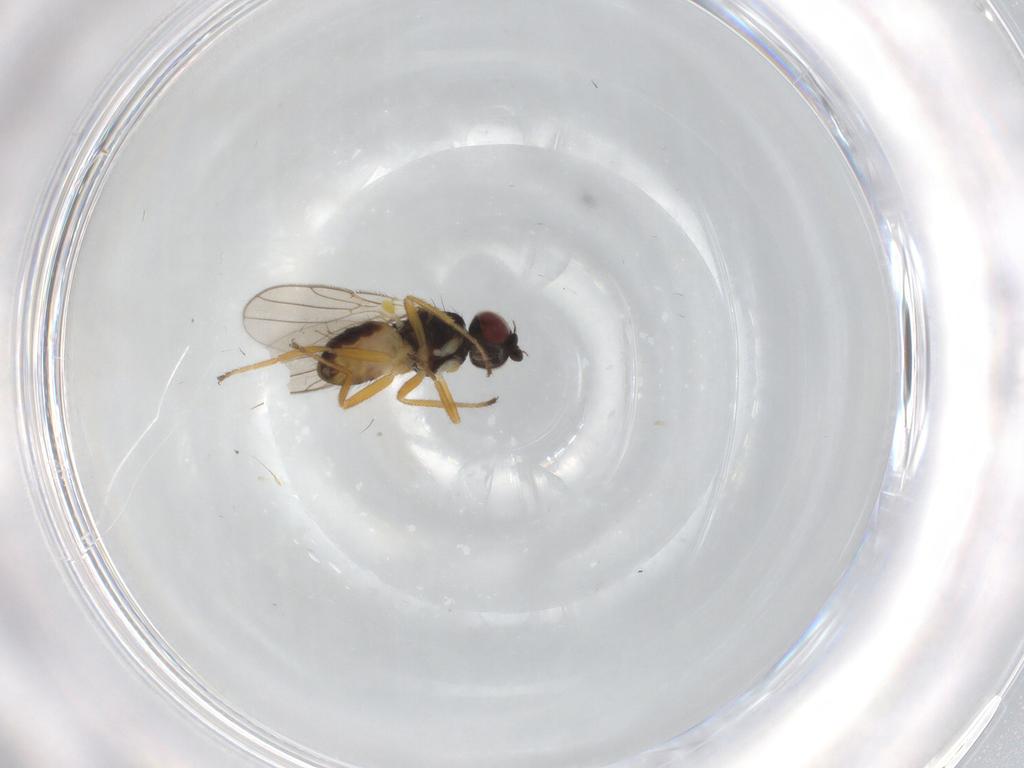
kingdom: Animalia
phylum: Arthropoda
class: Insecta
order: Diptera
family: Chloropidae
